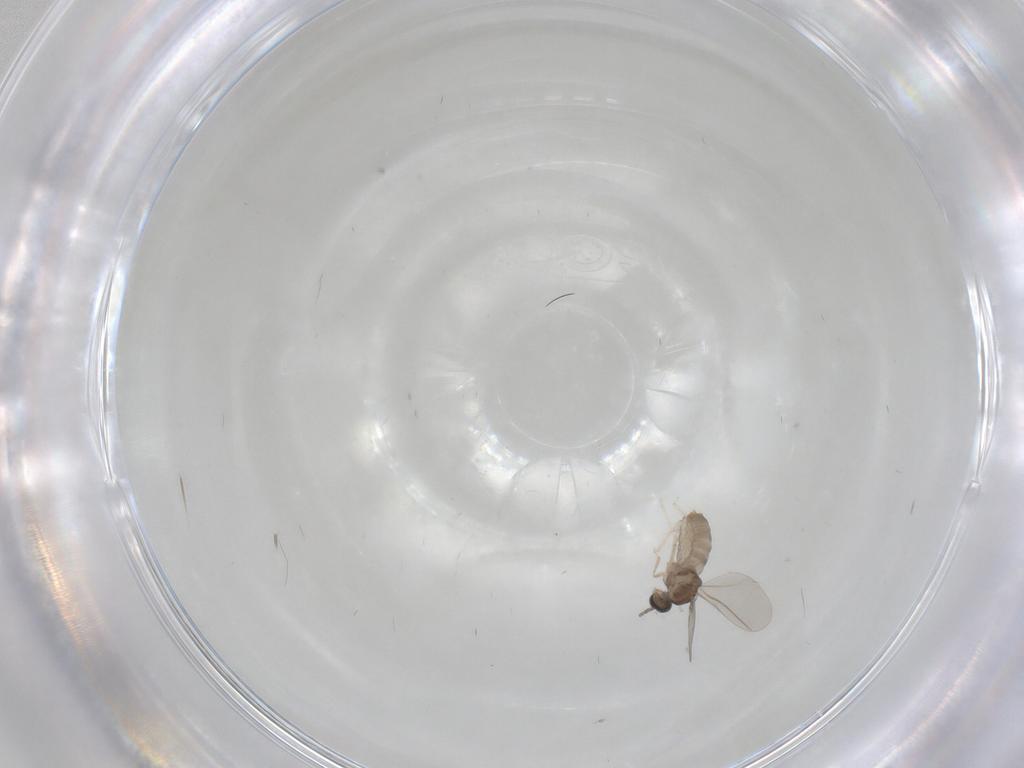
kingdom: Animalia
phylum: Arthropoda
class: Insecta
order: Diptera
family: Cecidomyiidae
